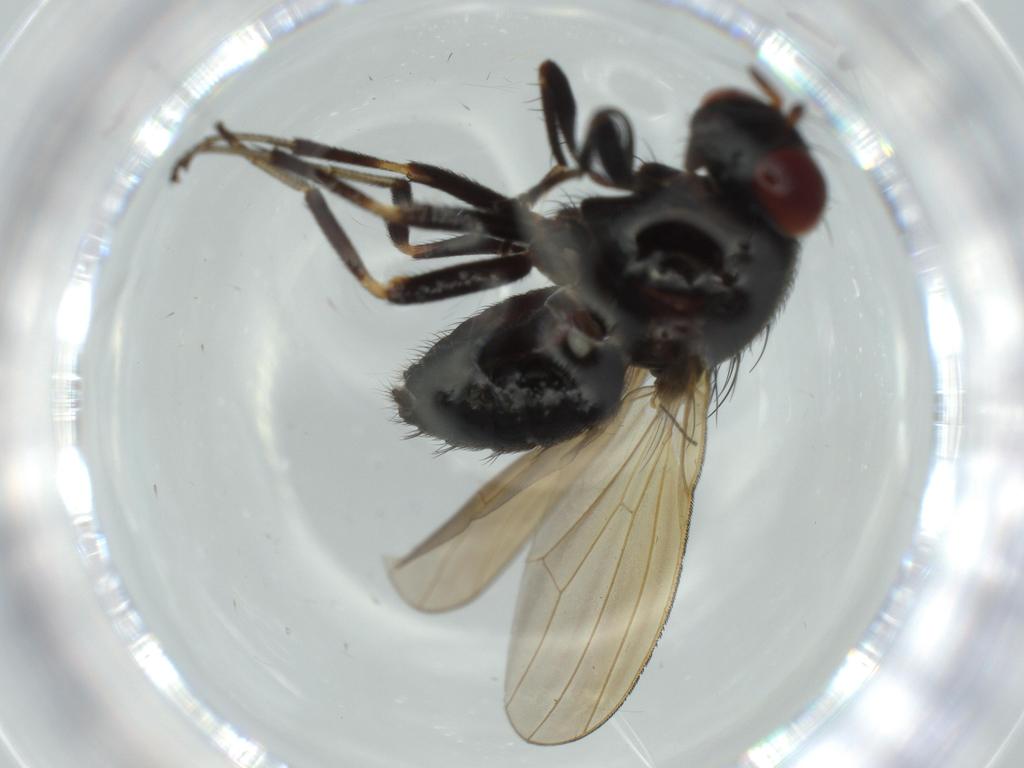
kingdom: Animalia
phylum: Arthropoda
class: Insecta
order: Diptera
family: Lauxaniidae
